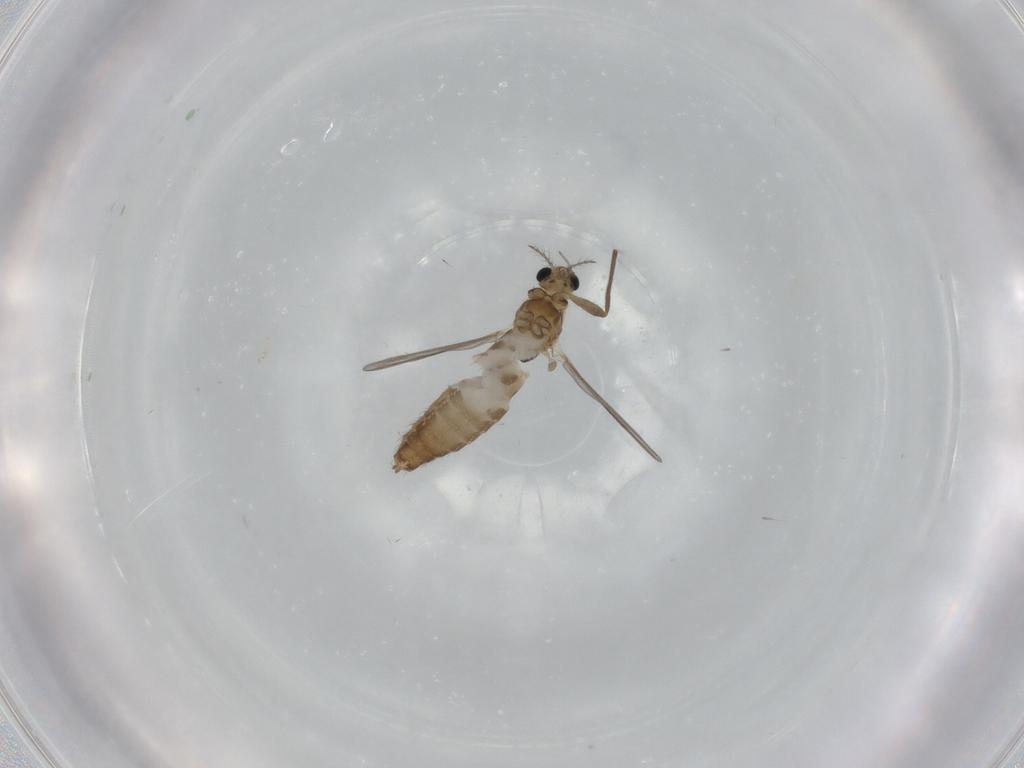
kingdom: Animalia
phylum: Arthropoda
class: Insecta
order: Diptera
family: Chironomidae
